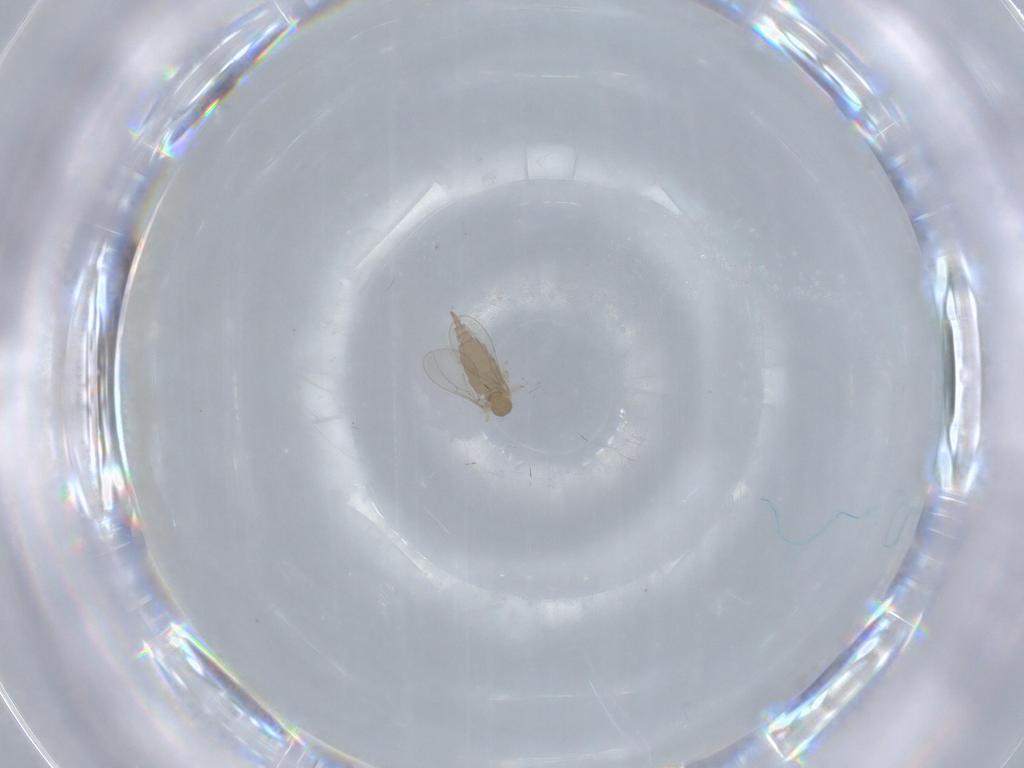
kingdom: Animalia
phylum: Arthropoda
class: Insecta
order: Diptera
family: Cecidomyiidae
